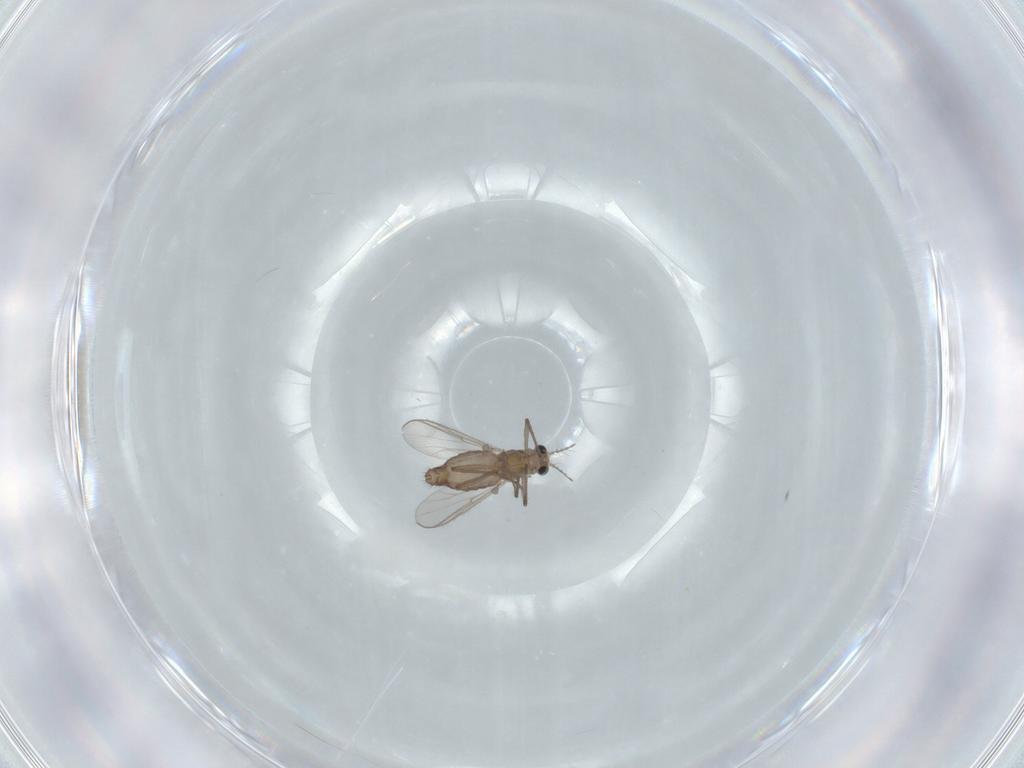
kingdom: Animalia
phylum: Arthropoda
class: Insecta
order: Diptera
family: Chironomidae
